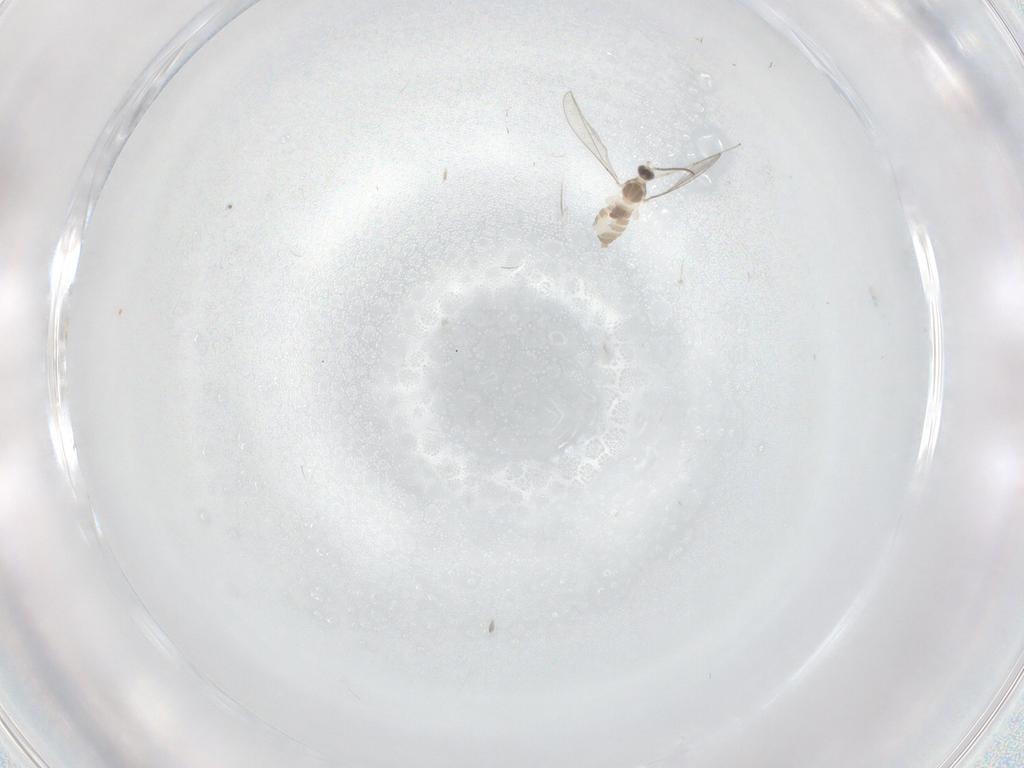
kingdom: Animalia
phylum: Arthropoda
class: Insecta
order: Diptera
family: Cecidomyiidae
